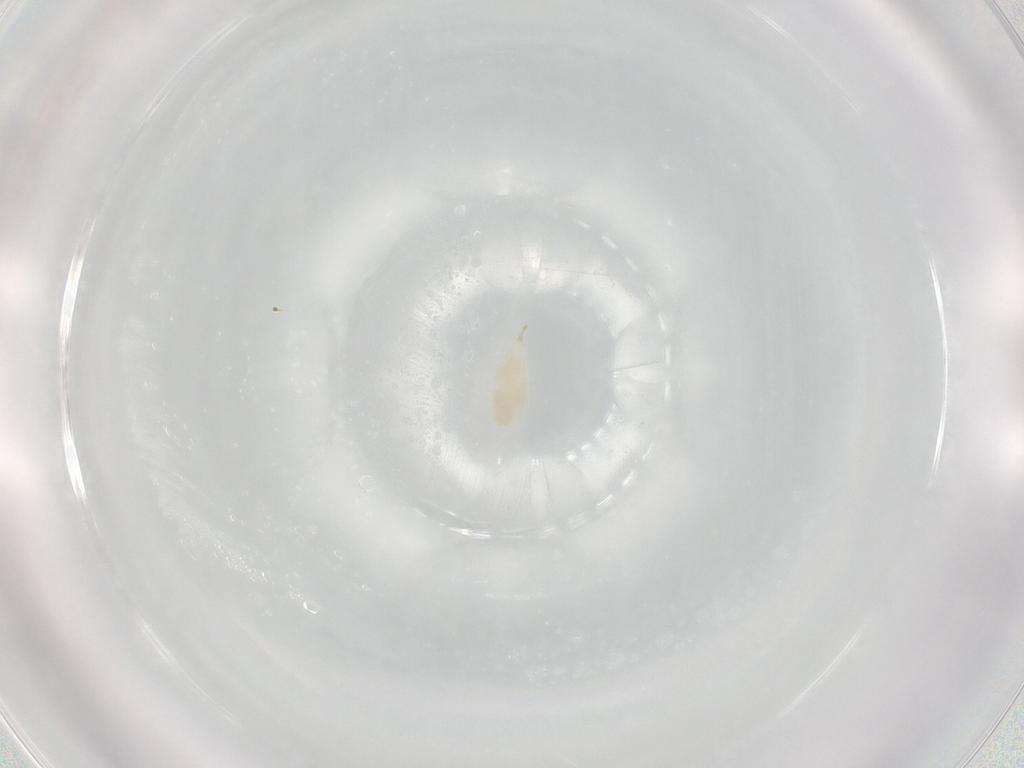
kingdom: Animalia
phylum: Arthropoda
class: Insecta
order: Hymenoptera
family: Ichneumonidae
